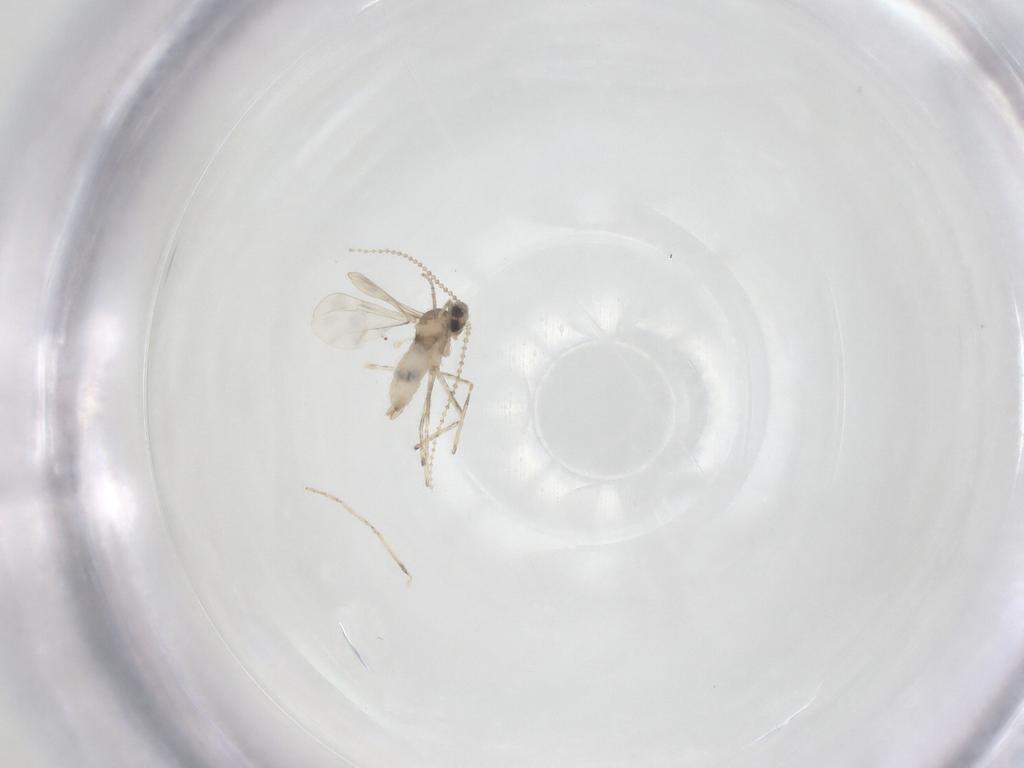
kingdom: Animalia
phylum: Arthropoda
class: Insecta
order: Diptera
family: Cecidomyiidae
